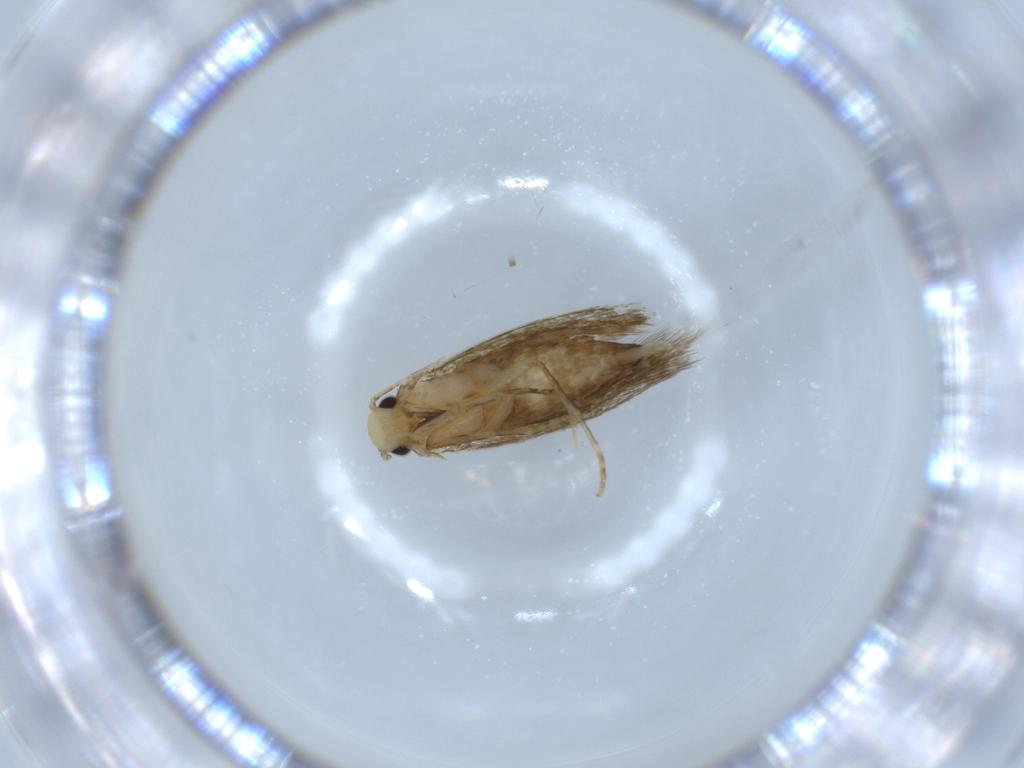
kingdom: Animalia
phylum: Arthropoda
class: Insecta
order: Lepidoptera
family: Tineidae
